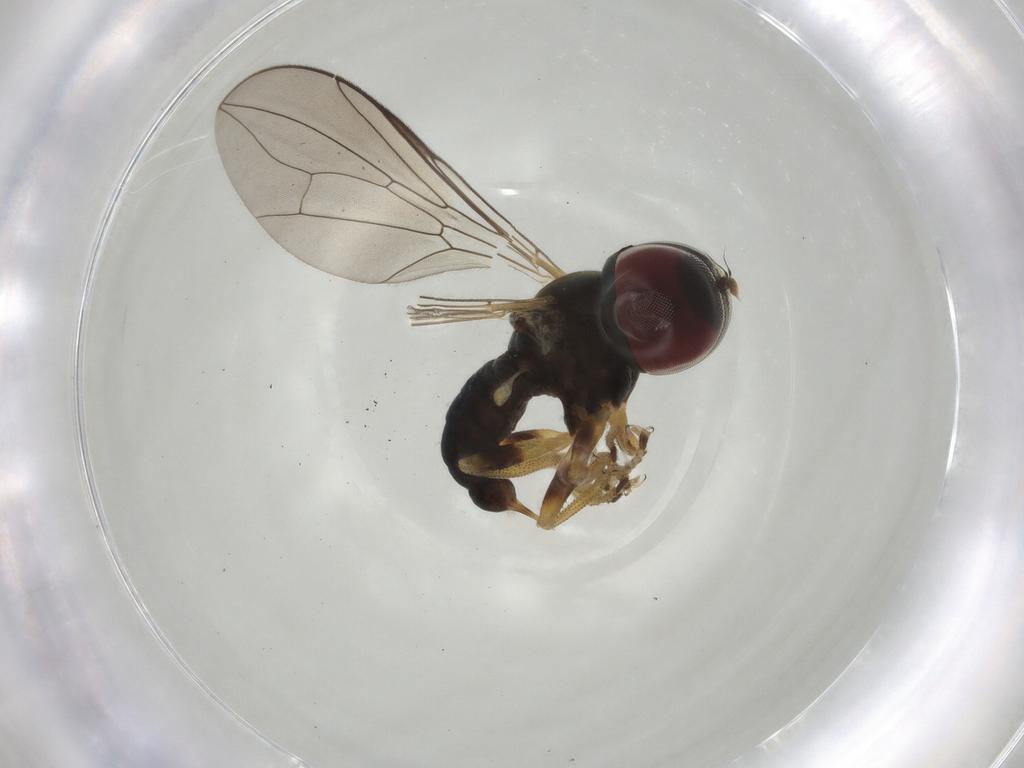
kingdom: Animalia
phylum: Arthropoda
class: Insecta
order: Diptera
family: Pipunculidae
